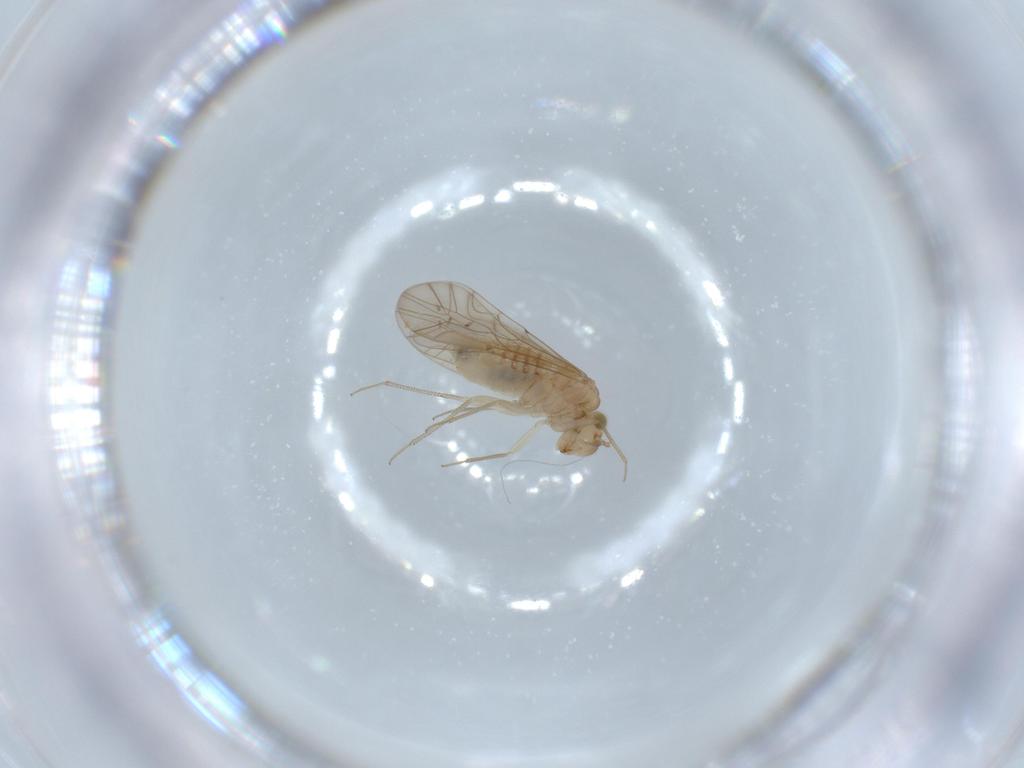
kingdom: Animalia
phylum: Arthropoda
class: Insecta
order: Psocodea
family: Lachesillidae
